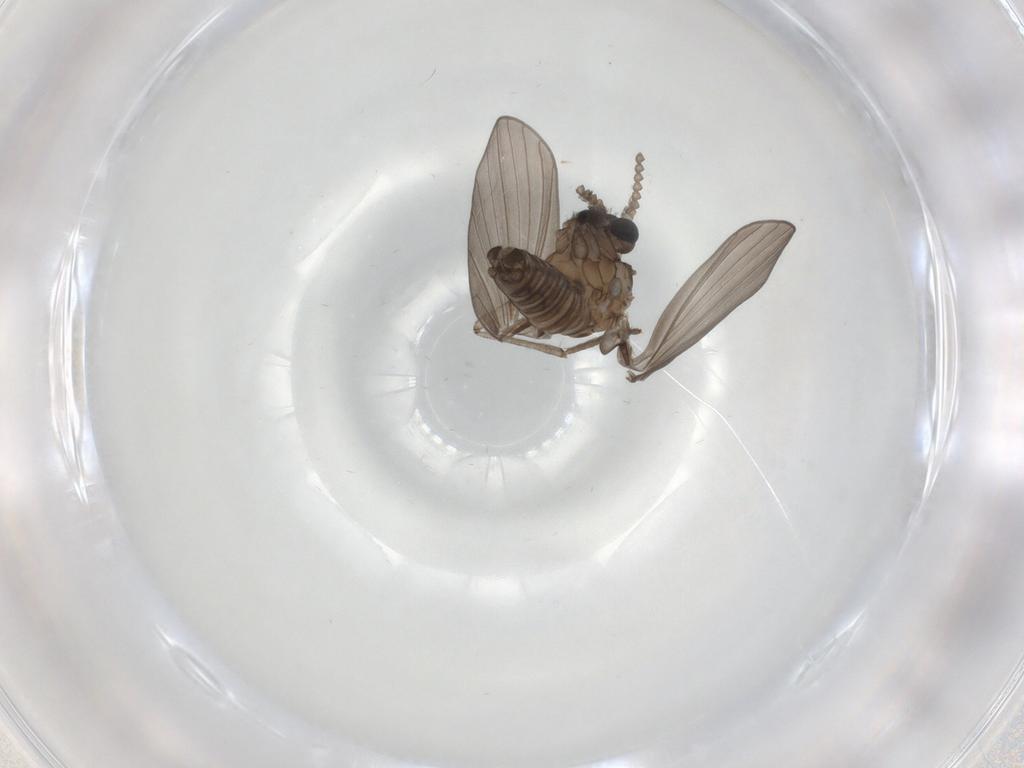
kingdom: Animalia
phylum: Arthropoda
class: Insecta
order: Diptera
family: Psychodidae
